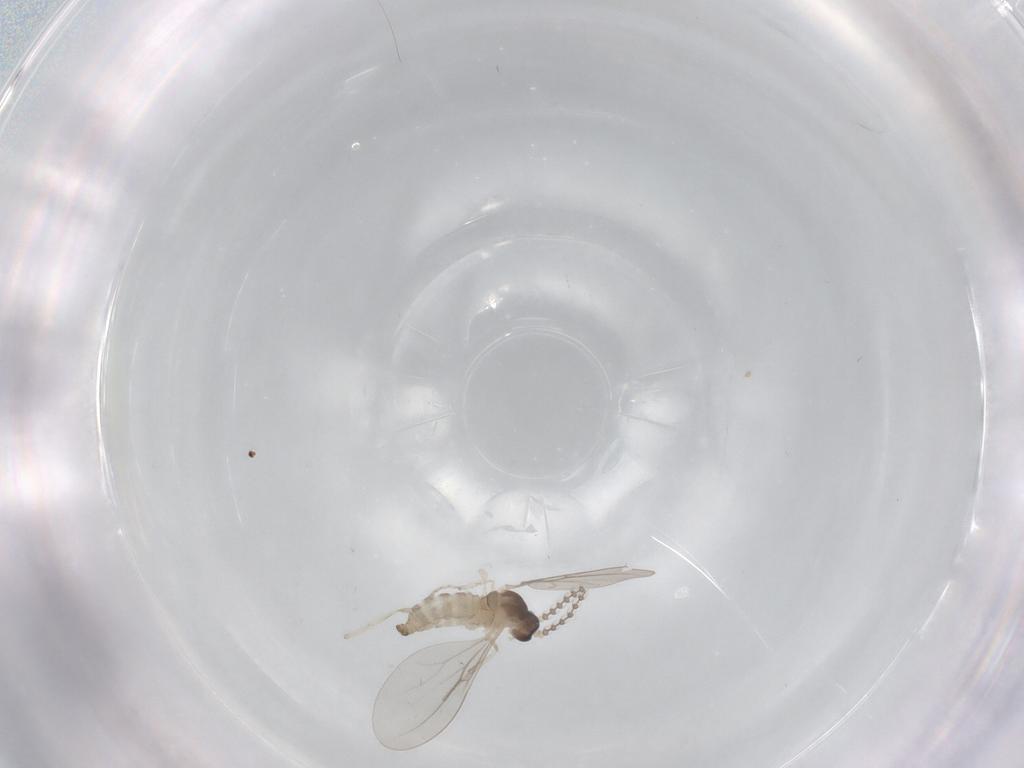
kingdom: Animalia
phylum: Arthropoda
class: Insecta
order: Diptera
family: Cecidomyiidae
